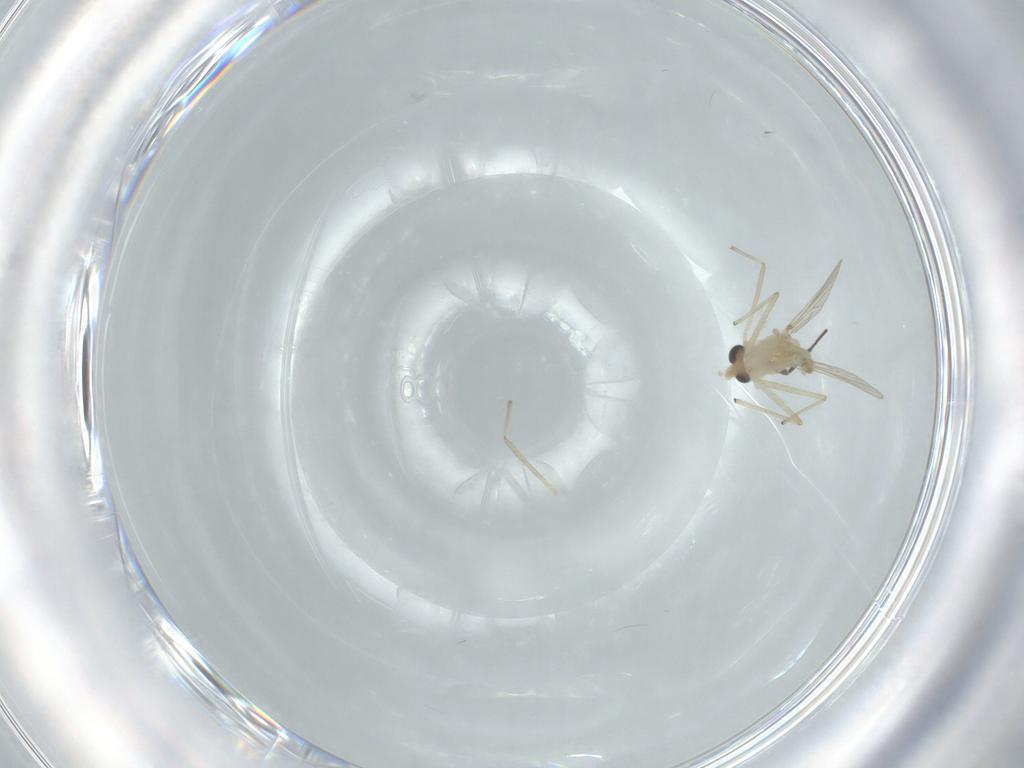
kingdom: Animalia
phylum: Arthropoda
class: Insecta
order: Diptera
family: Chironomidae
